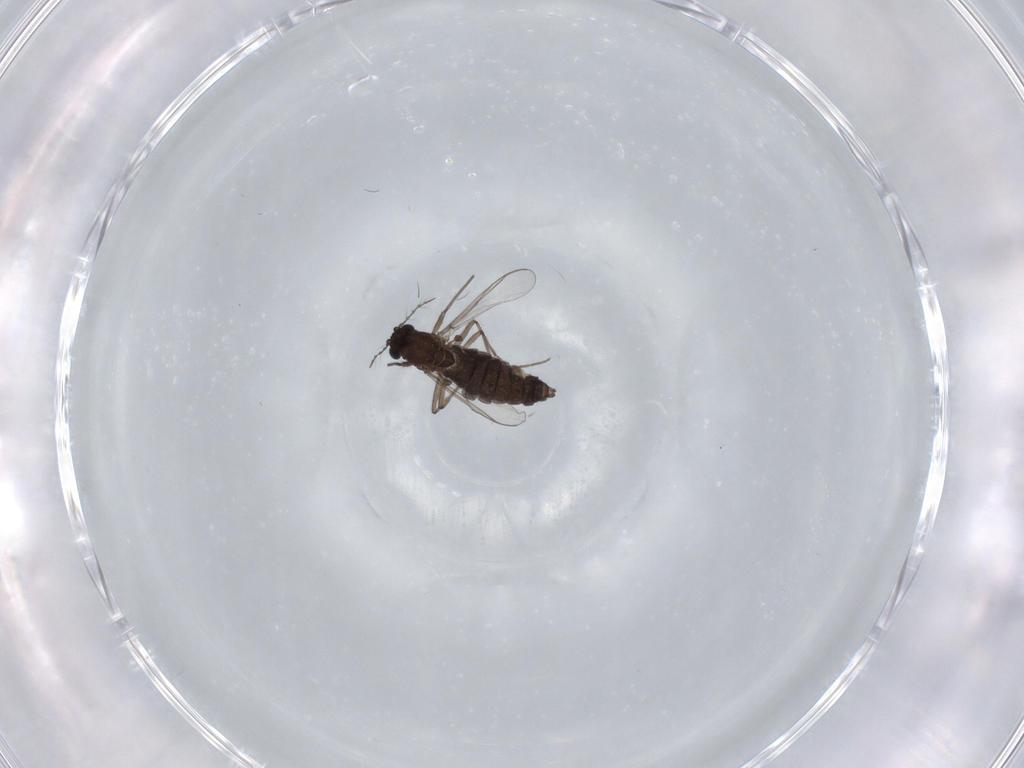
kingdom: Animalia
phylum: Arthropoda
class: Insecta
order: Diptera
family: Chironomidae
